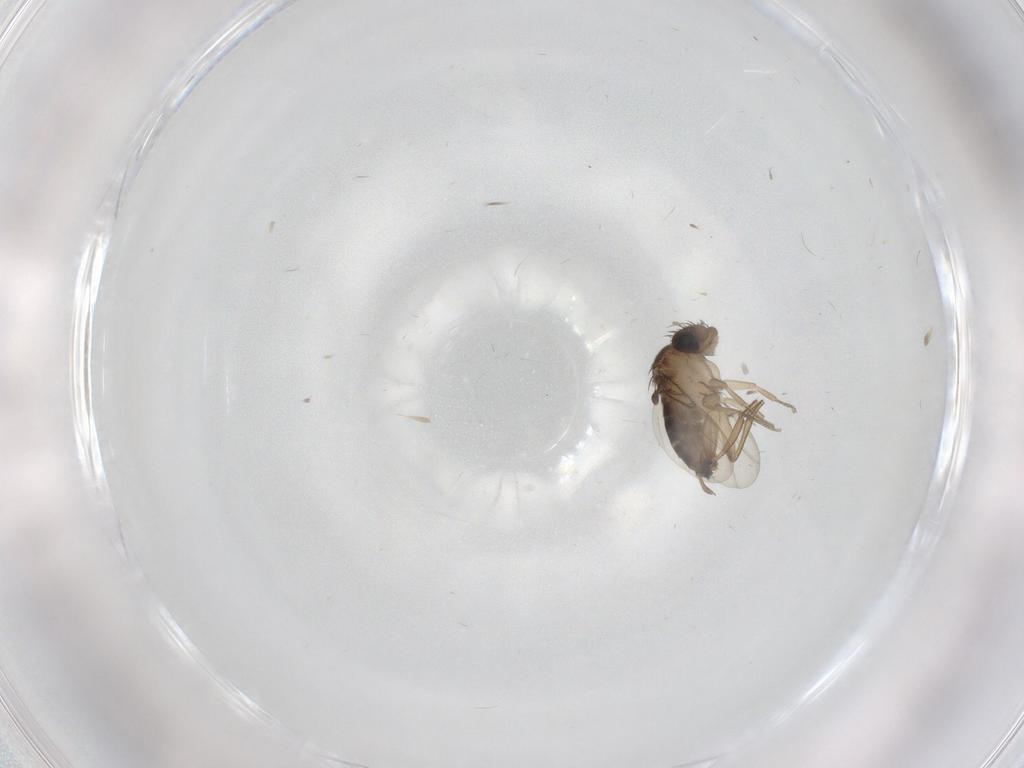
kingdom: Animalia
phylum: Arthropoda
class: Insecta
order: Diptera
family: Cecidomyiidae
